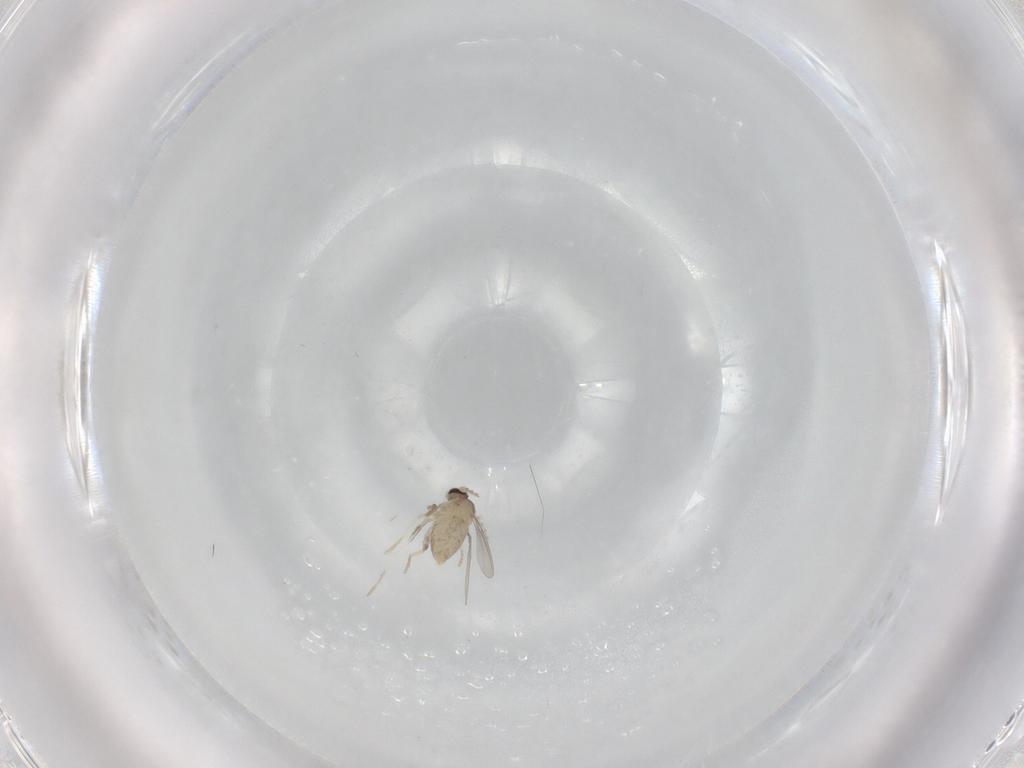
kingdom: Animalia
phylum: Arthropoda
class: Insecta
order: Diptera
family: Cecidomyiidae
